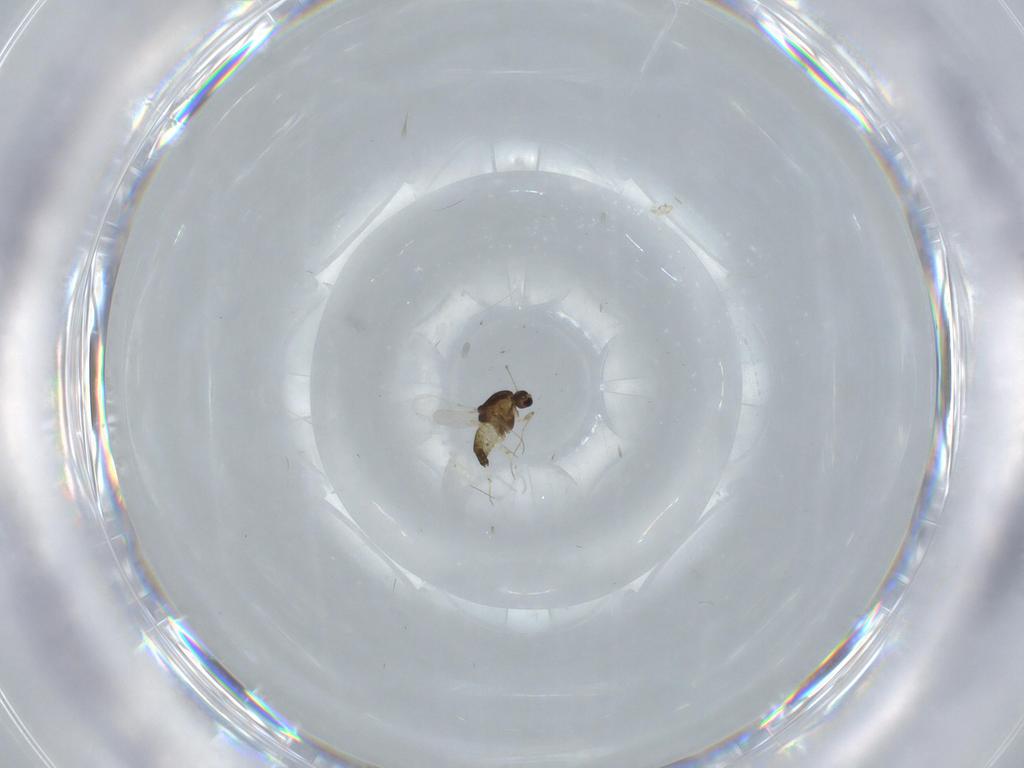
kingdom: Animalia
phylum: Arthropoda
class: Insecta
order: Diptera
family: Chironomidae
